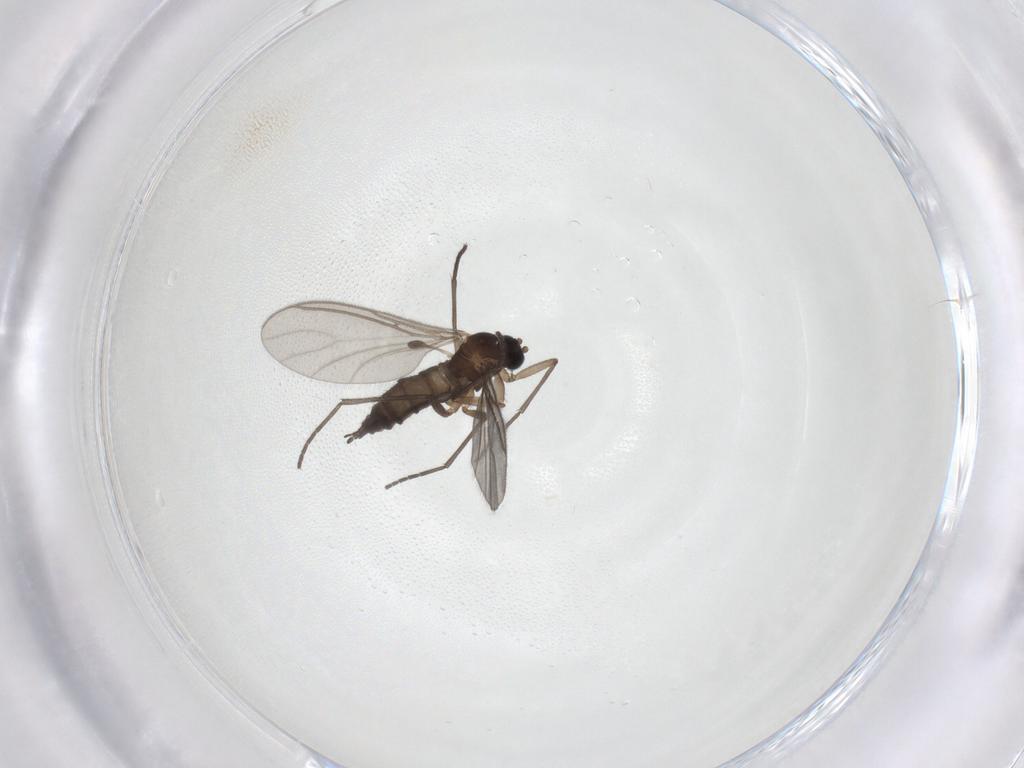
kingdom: Animalia
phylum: Arthropoda
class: Insecta
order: Diptera
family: Sciaridae
